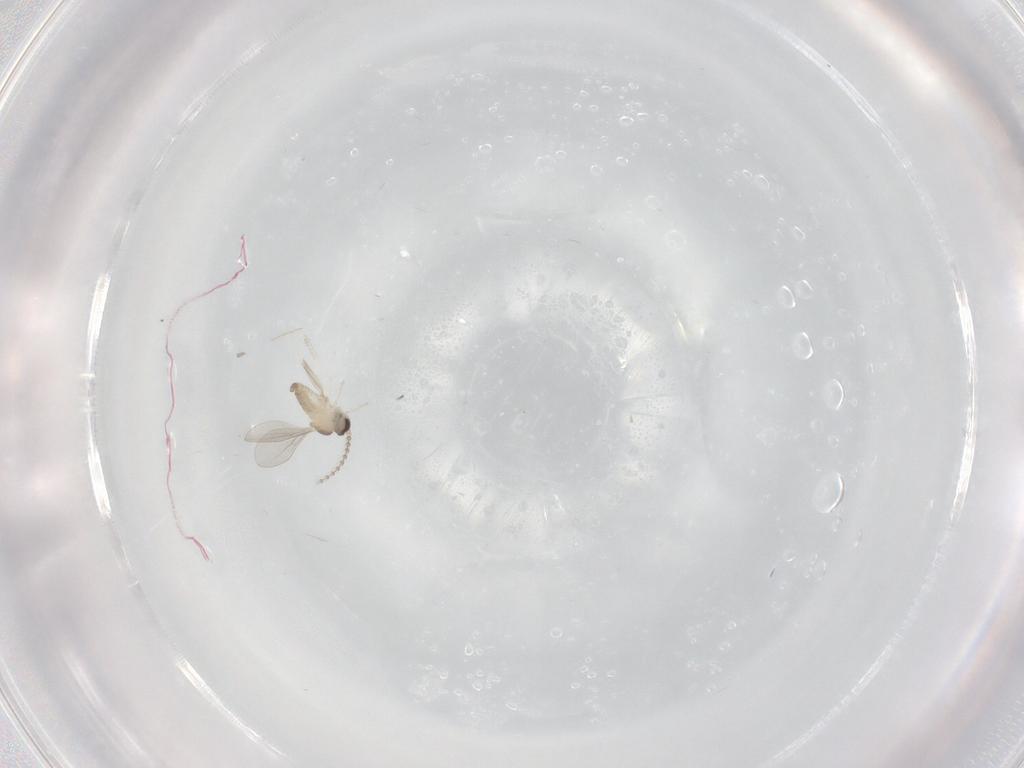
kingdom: Animalia
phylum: Arthropoda
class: Insecta
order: Diptera
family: Cecidomyiidae
